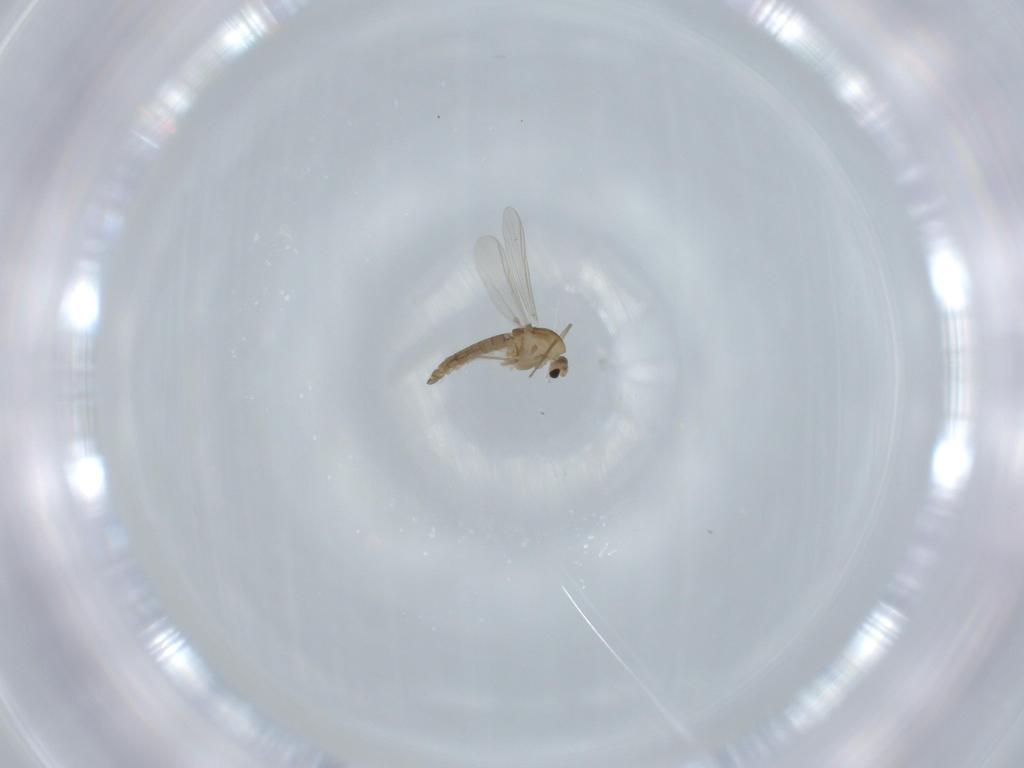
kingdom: Animalia
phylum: Arthropoda
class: Insecta
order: Diptera
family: Chironomidae
